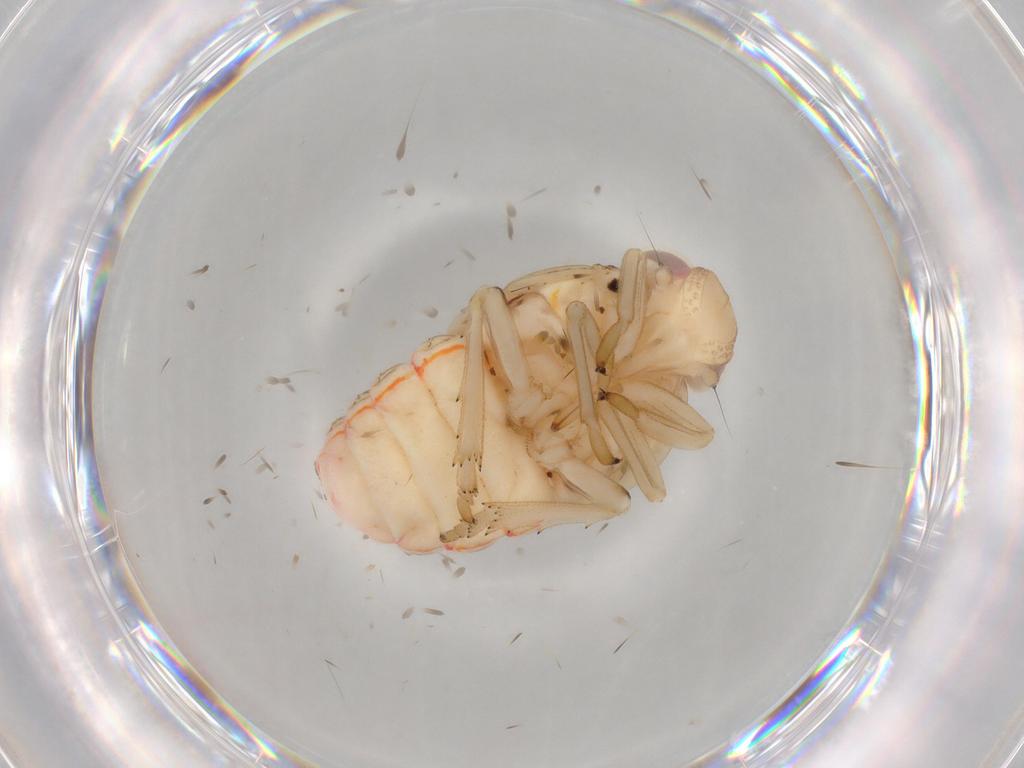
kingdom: Animalia
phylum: Arthropoda
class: Insecta
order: Hemiptera
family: Issidae
